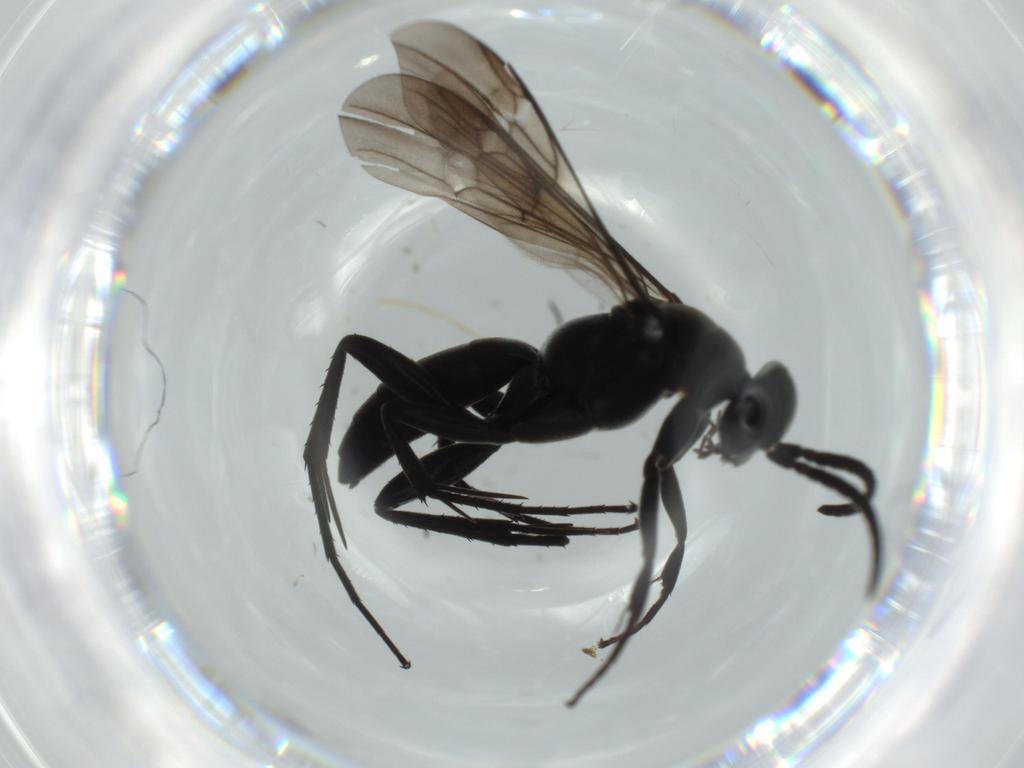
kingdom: Animalia
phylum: Arthropoda
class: Insecta
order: Hymenoptera
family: Pompilidae
